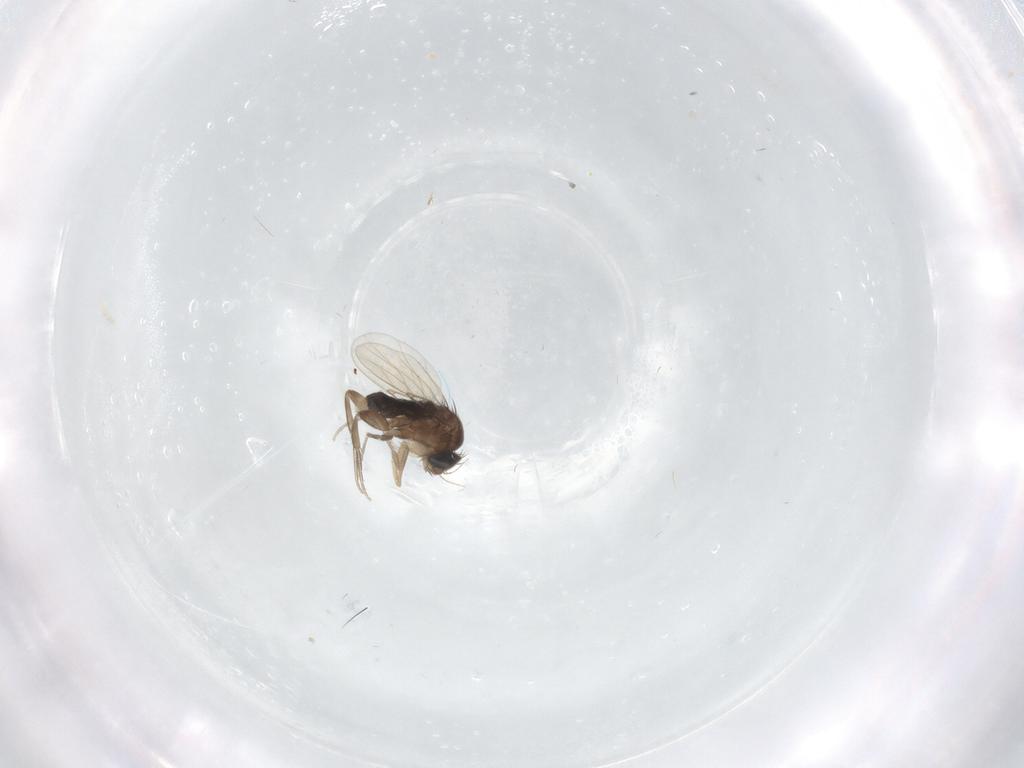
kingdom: Animalia
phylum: Arthropoda
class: Insecta
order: Diptera
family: Phoridae
